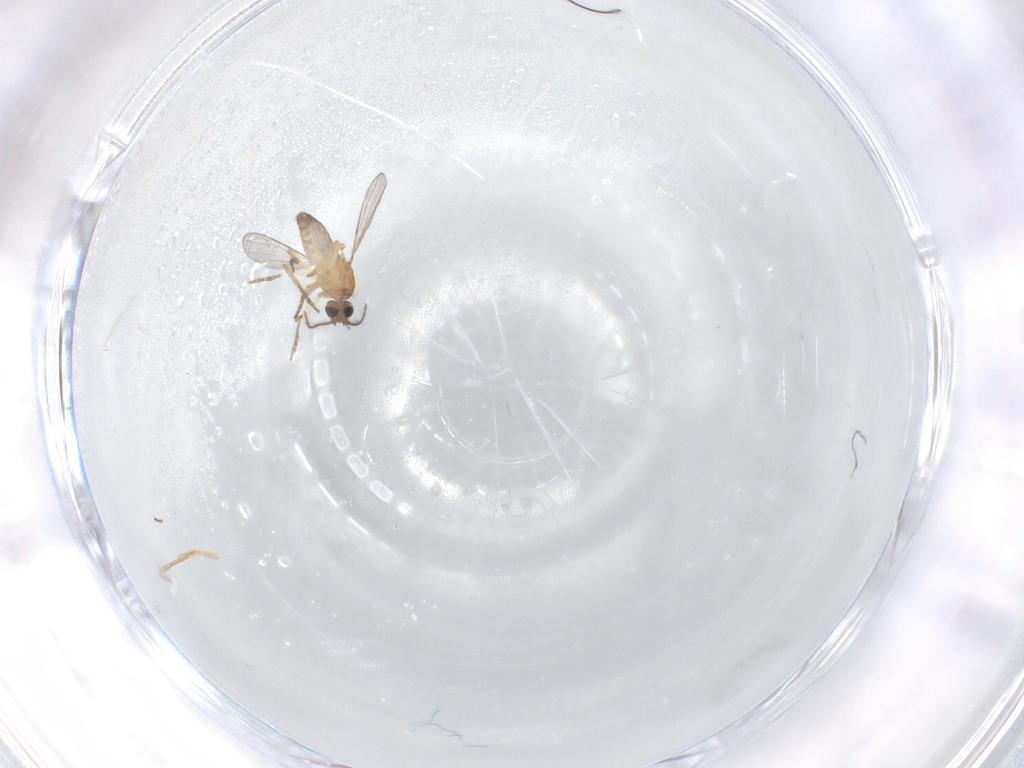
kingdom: Animalia
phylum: Arthropoda
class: Insecta
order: Diptera
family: Ceratopogonidae
